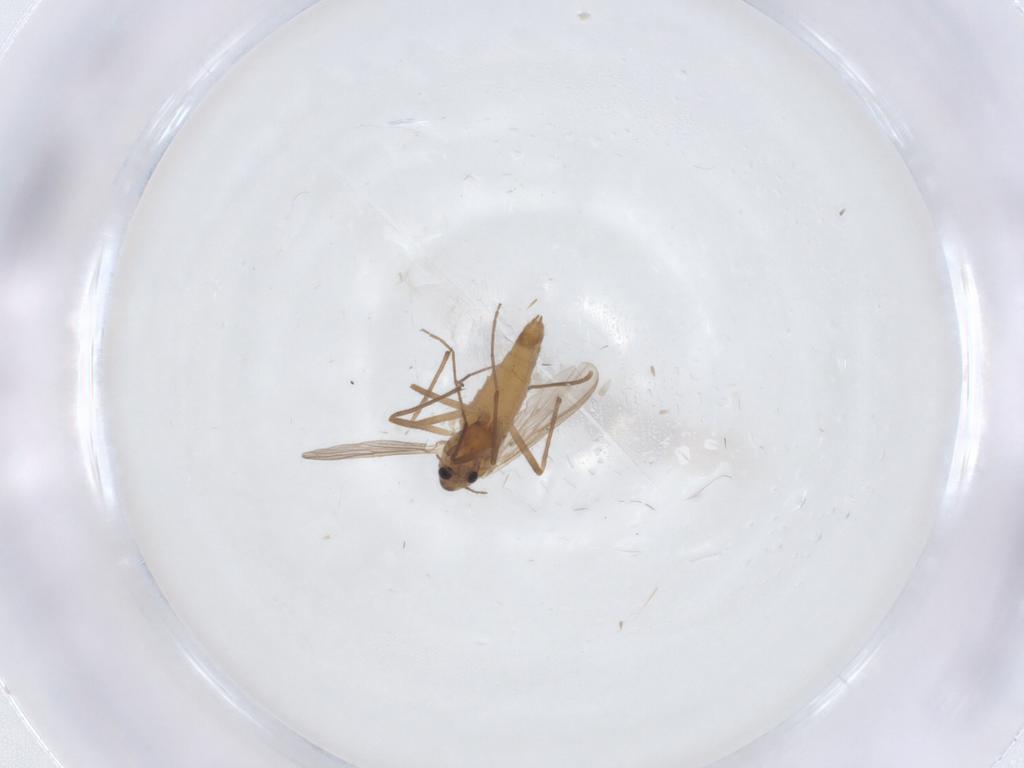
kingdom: Animalia
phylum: Arthropoda
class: Insecta
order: Diptera
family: Chironomidae
